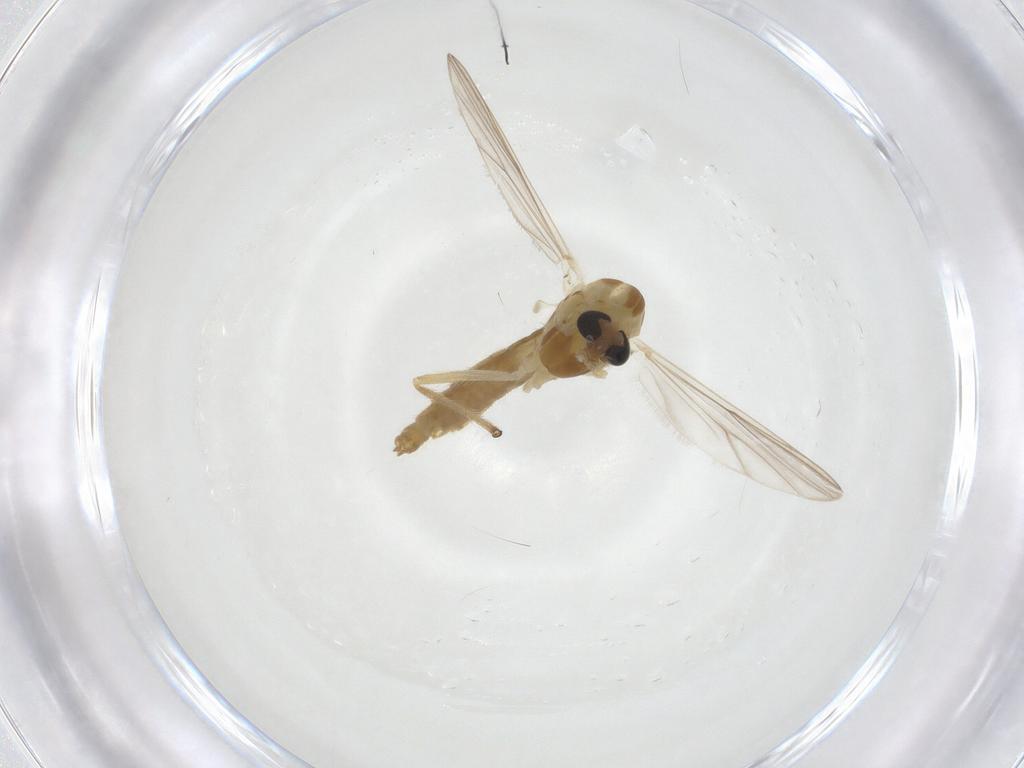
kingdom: Animalia
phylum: Arthropoda
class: Insecta
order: Diptera
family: Chironomidae
